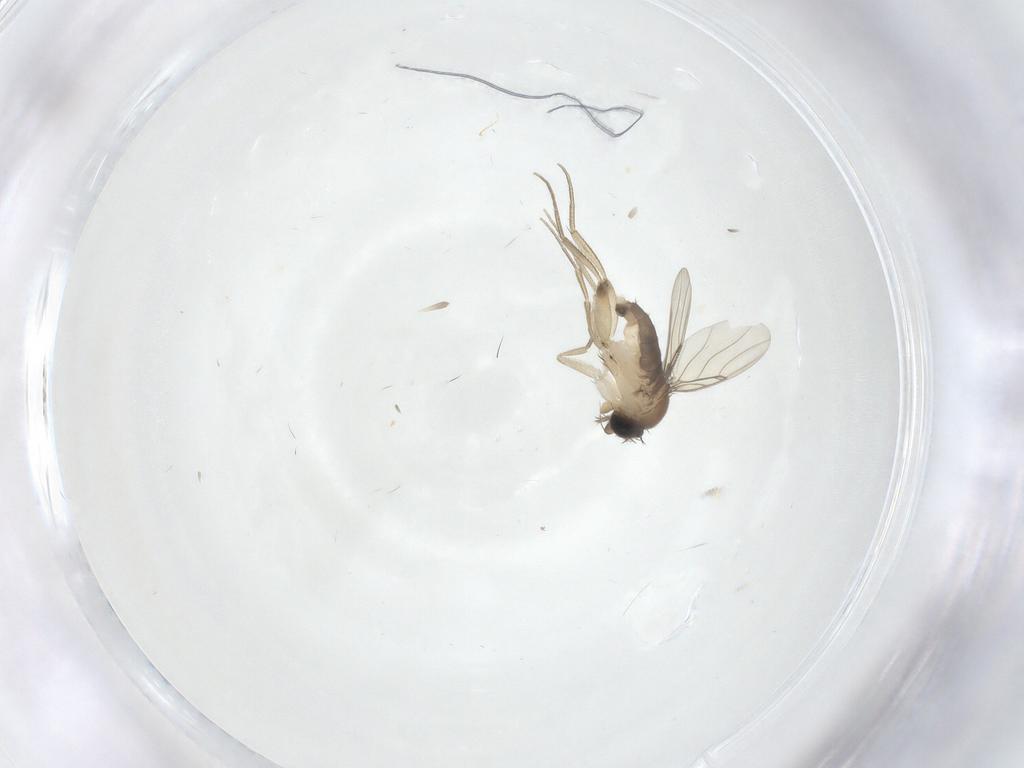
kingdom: Animalia
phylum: Arthropoda
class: Insecta
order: Diptera
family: Phoridae
